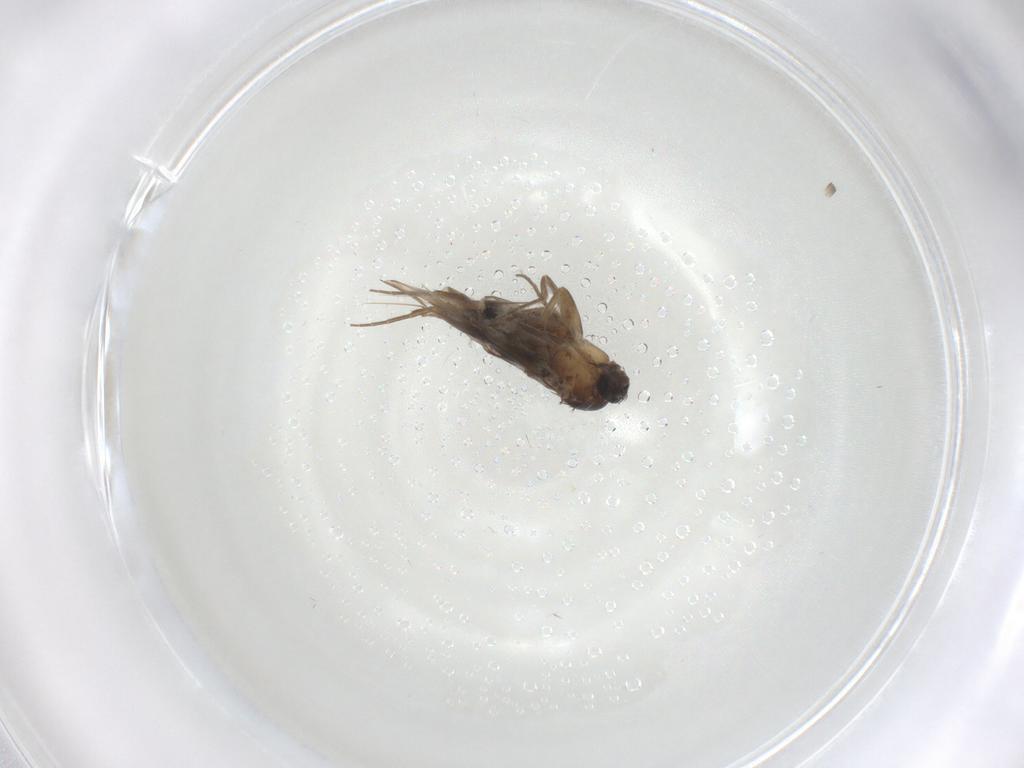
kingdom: Animalia
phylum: Arthropoda
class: Insecta
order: Diptera
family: Phoridae
